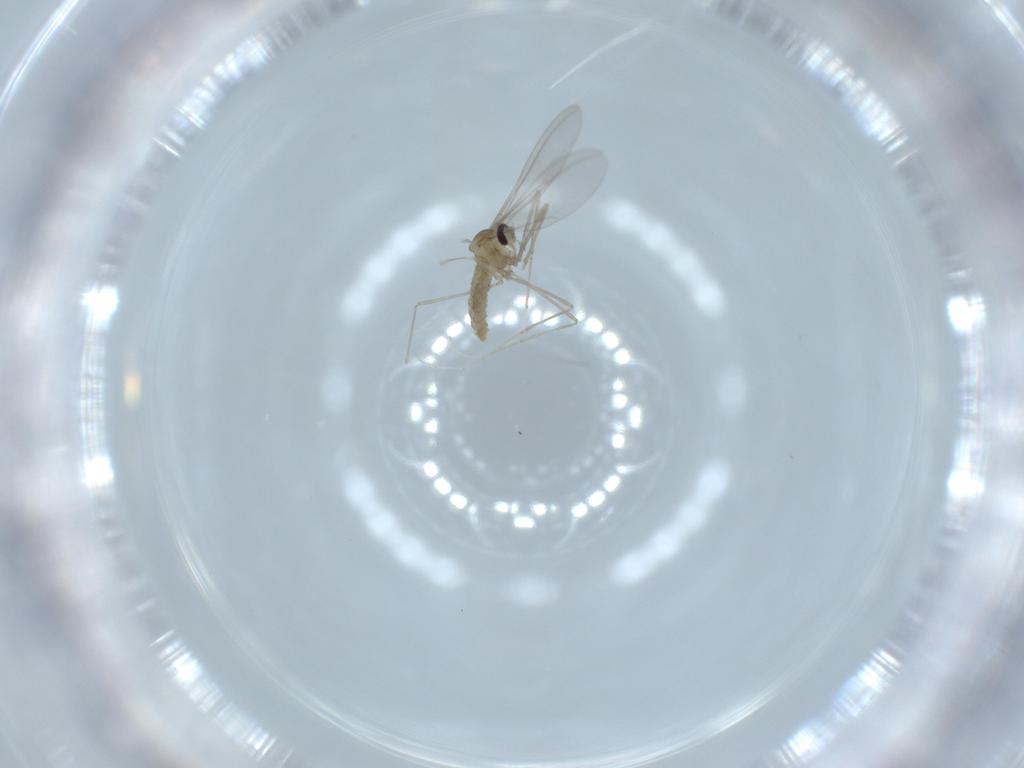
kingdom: Animalia
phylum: Arthropoda
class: Insecta
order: Diptera
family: Cecidomyiidae
